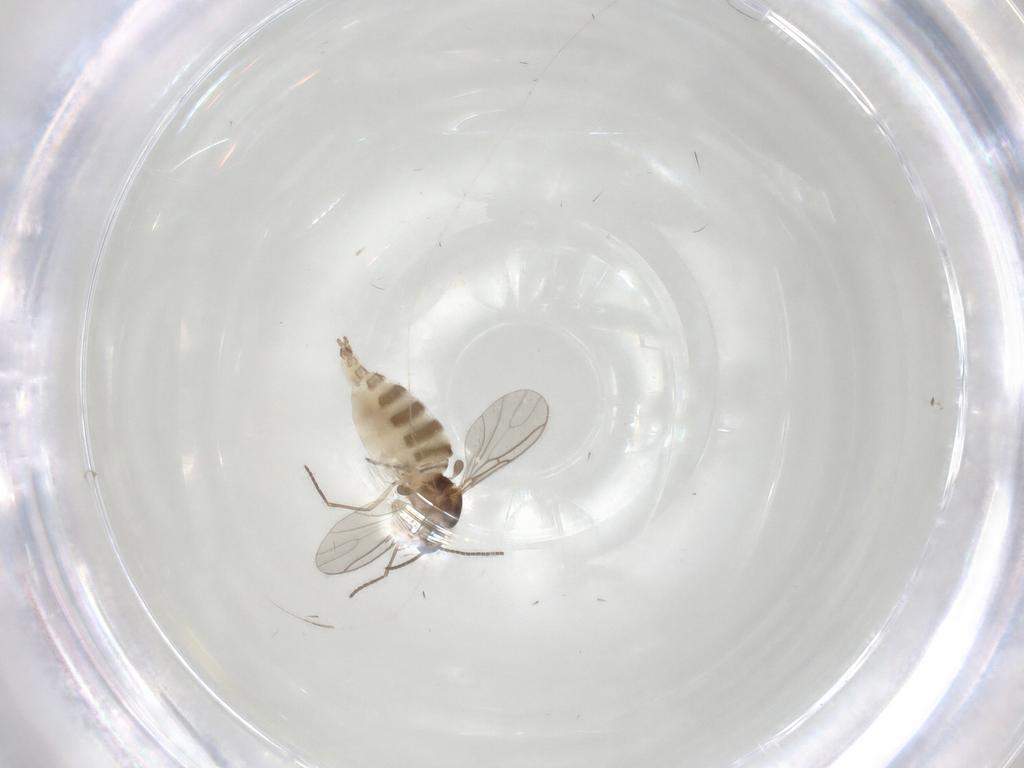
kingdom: Animalia
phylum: Arthropoda
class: Insecta
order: Diptera
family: Sciaridae
